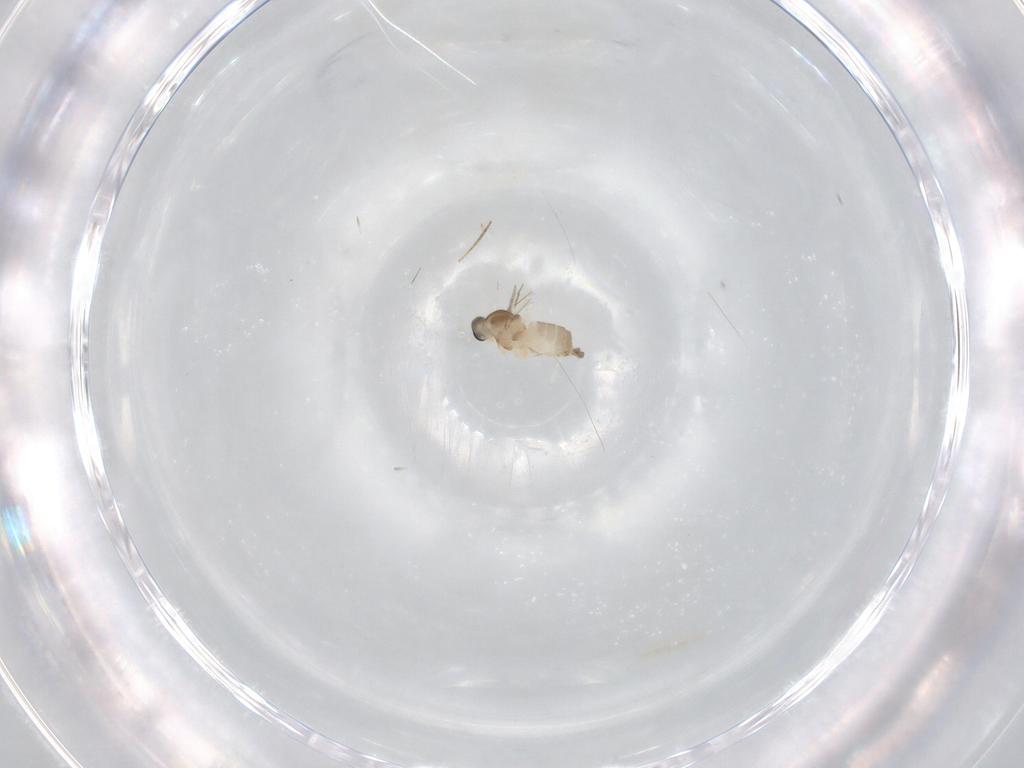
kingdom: Animalia
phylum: Arthropoda
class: Insecta
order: Diptera
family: Cecidomyiidae
